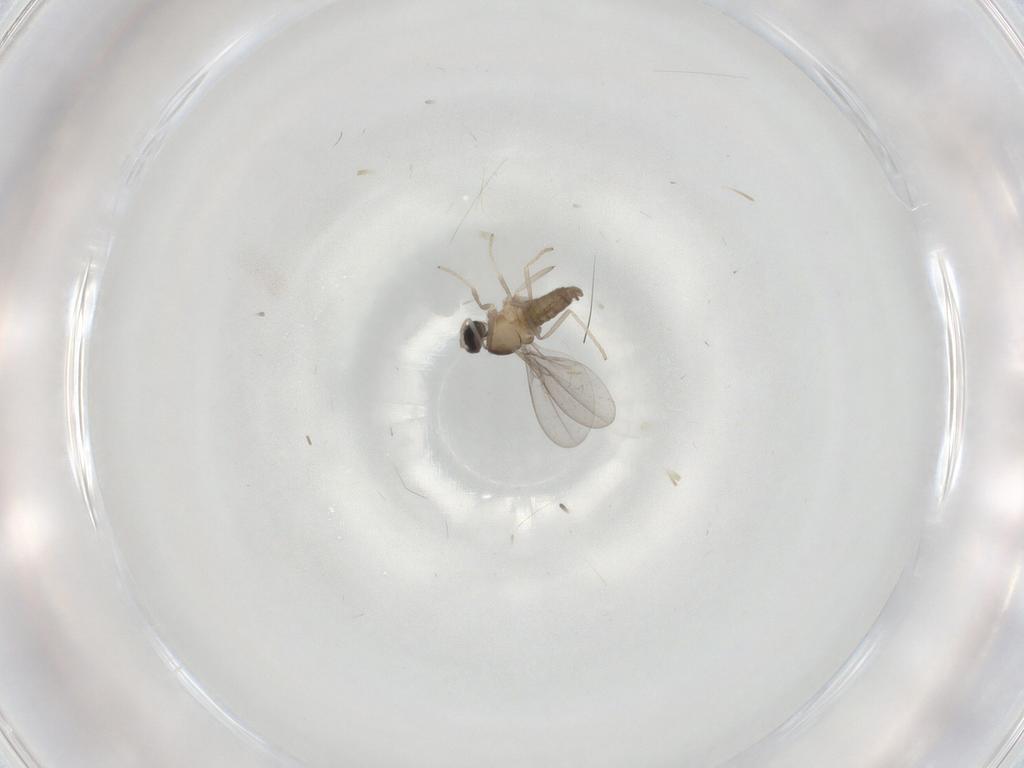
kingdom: Animalia
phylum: Arthropoda
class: Insecta
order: Diptera
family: Cecidomyiidae
